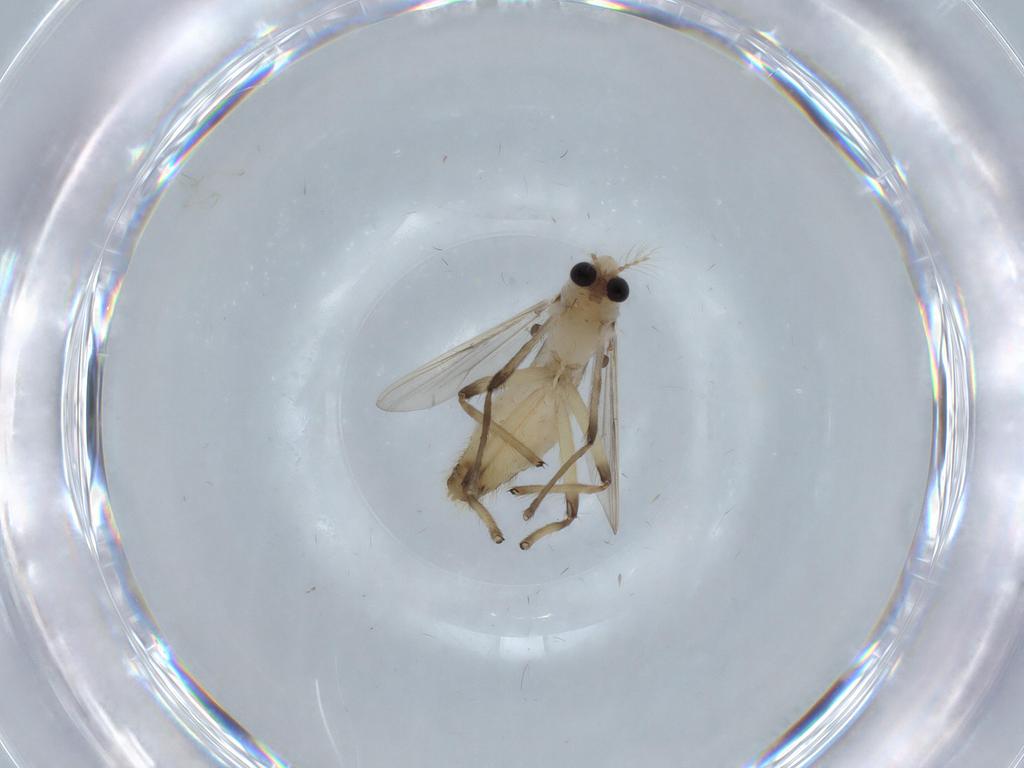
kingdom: Animalia
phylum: Arthropoda
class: Insecta
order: Diptera
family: Chironomidae
